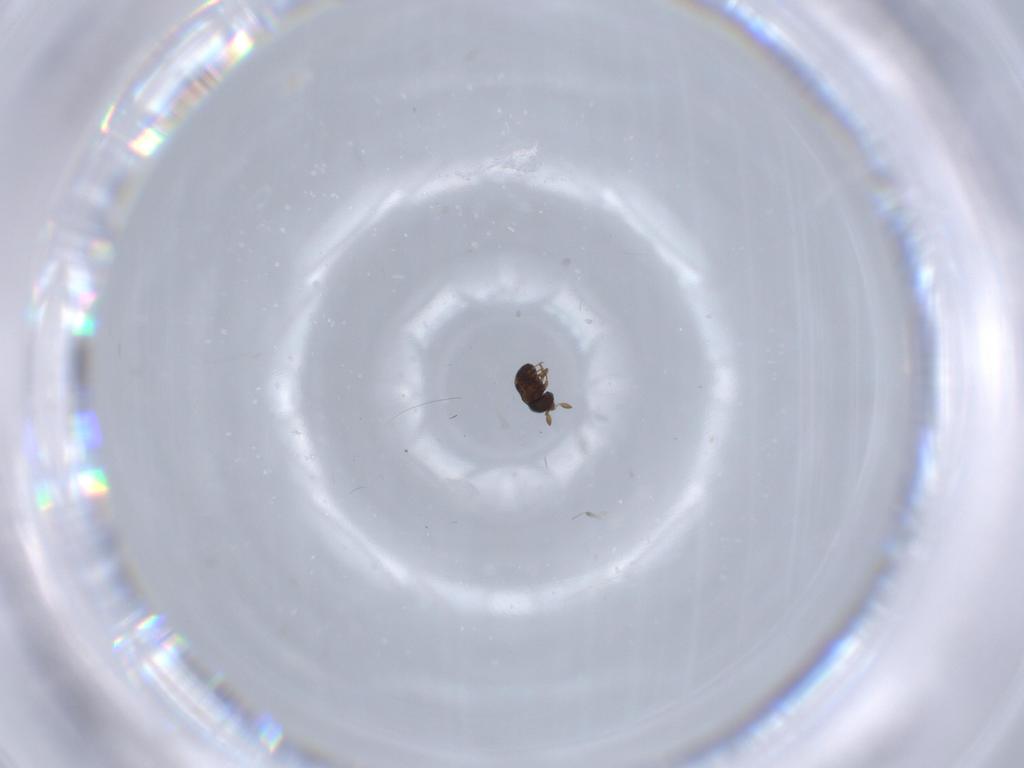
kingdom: Animalia
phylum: Arthropoda
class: Insecta
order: Hymenoptera
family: Scelionidae
